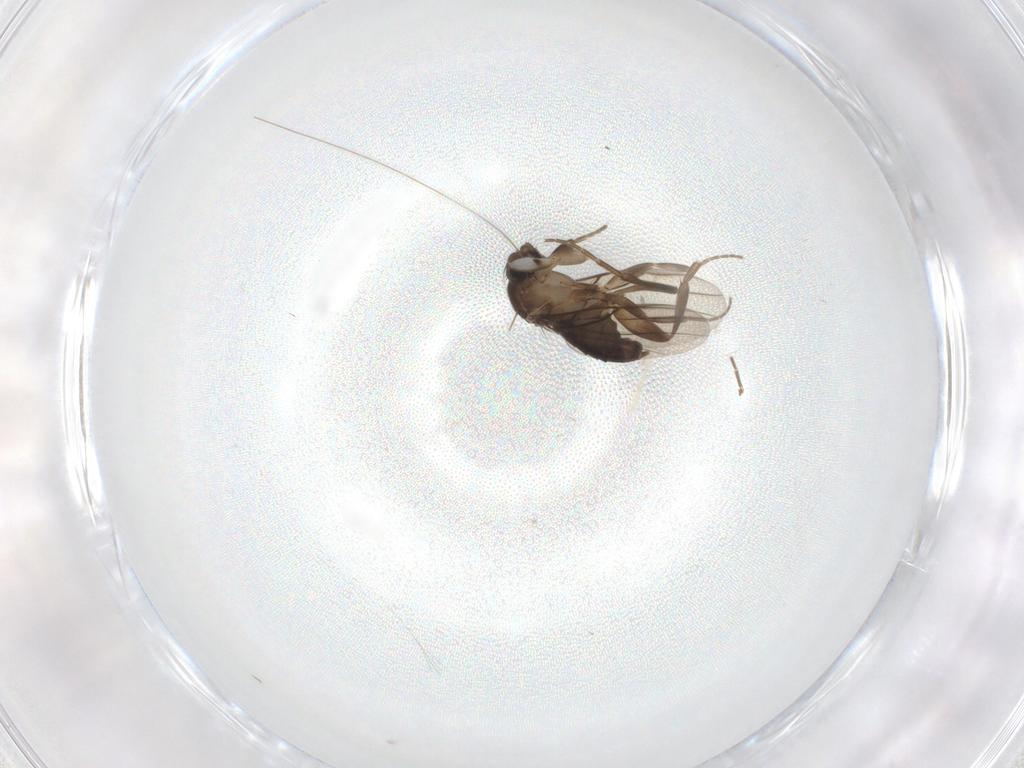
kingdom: Animalia
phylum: Arthropoda
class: Insecta
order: Diptera
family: Phoridae
